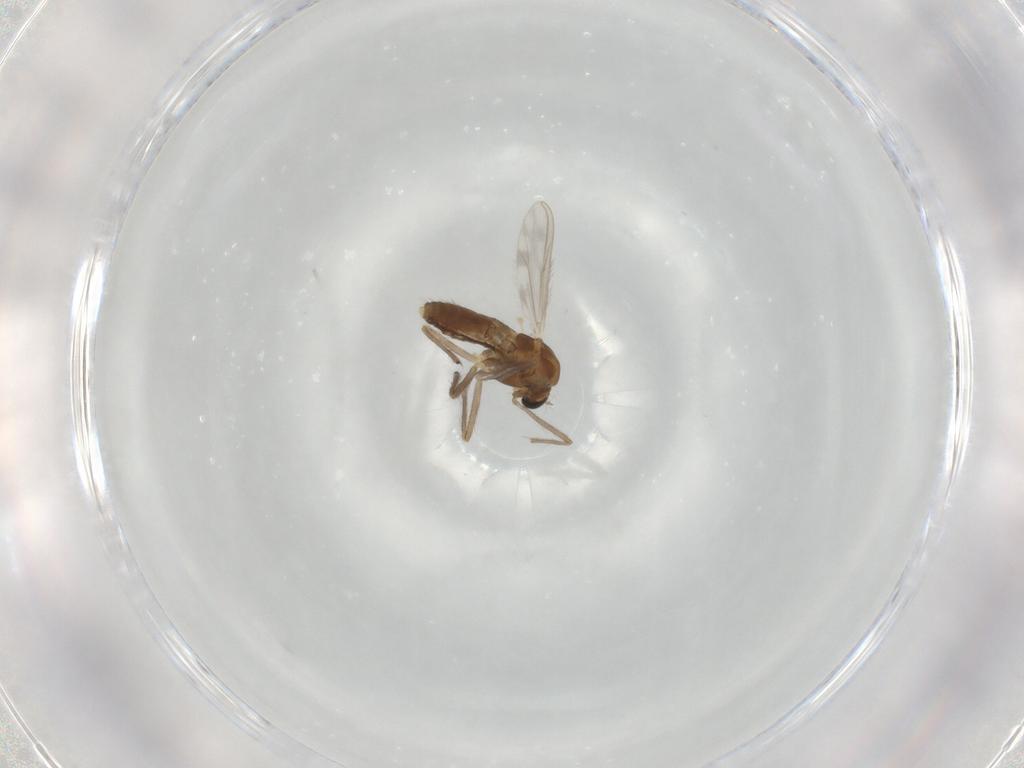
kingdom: Animalia
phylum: Arthropoda
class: Insecta
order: Diptera
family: Chironomidae
